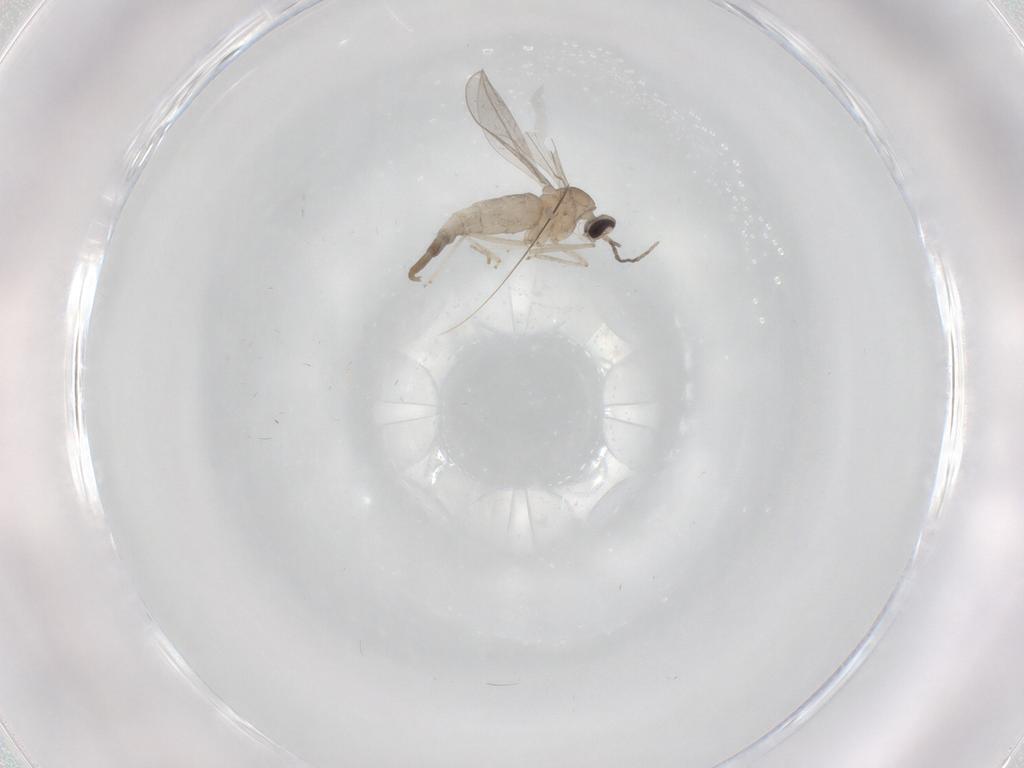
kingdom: Animalia
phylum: Arthropoda
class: Insecta
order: Diptera
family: Cecidomyiidae
